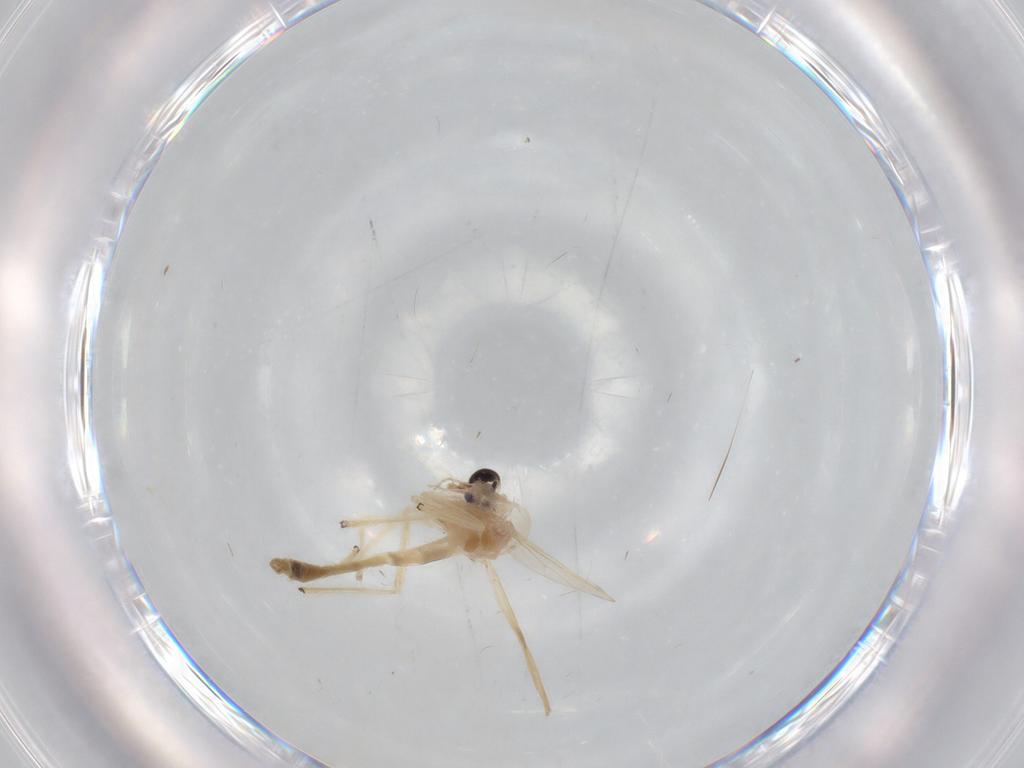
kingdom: Animalia
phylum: Arthropoda
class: Insecta
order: Diptera
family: Chironomidae
